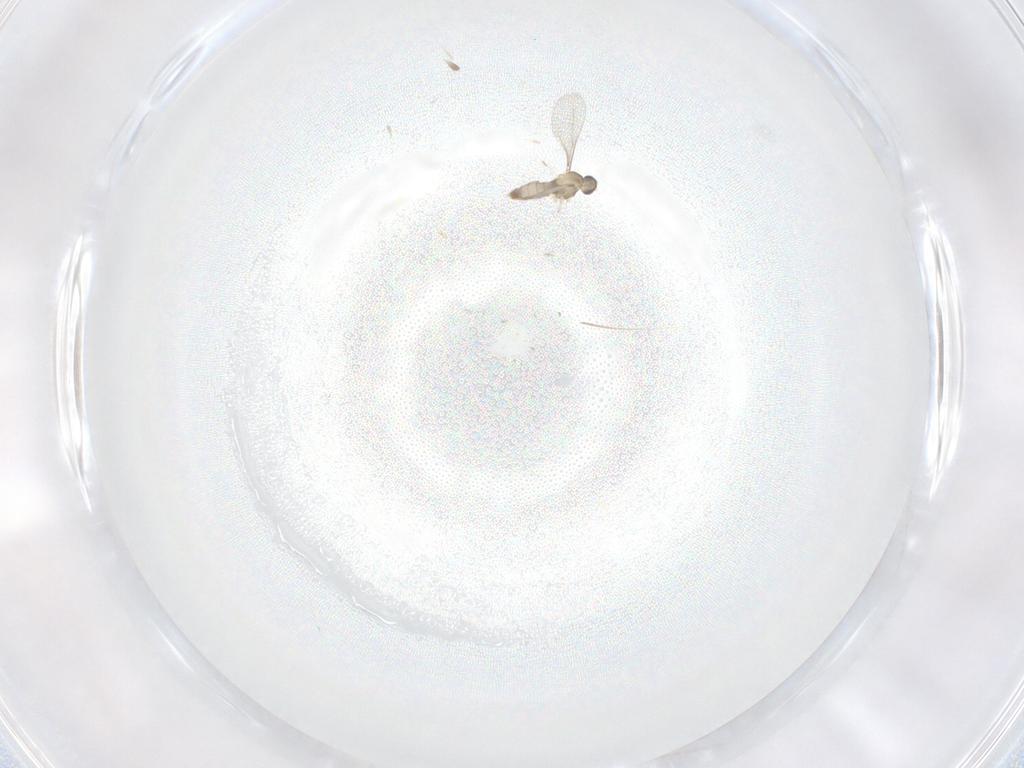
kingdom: Animalia
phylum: Arthropoda
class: Insecta
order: Diptera
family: Cecidomyiidae
